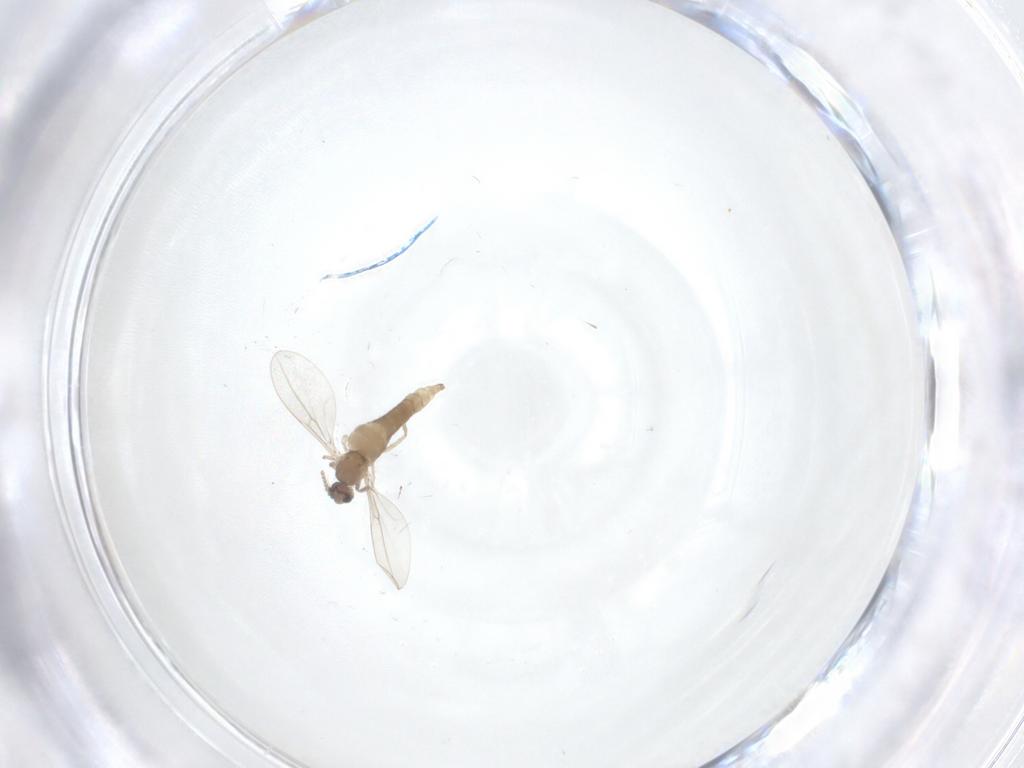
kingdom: Animalia
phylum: Arthropoda
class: Insecta
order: Diptera
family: Cecidomyiidae
